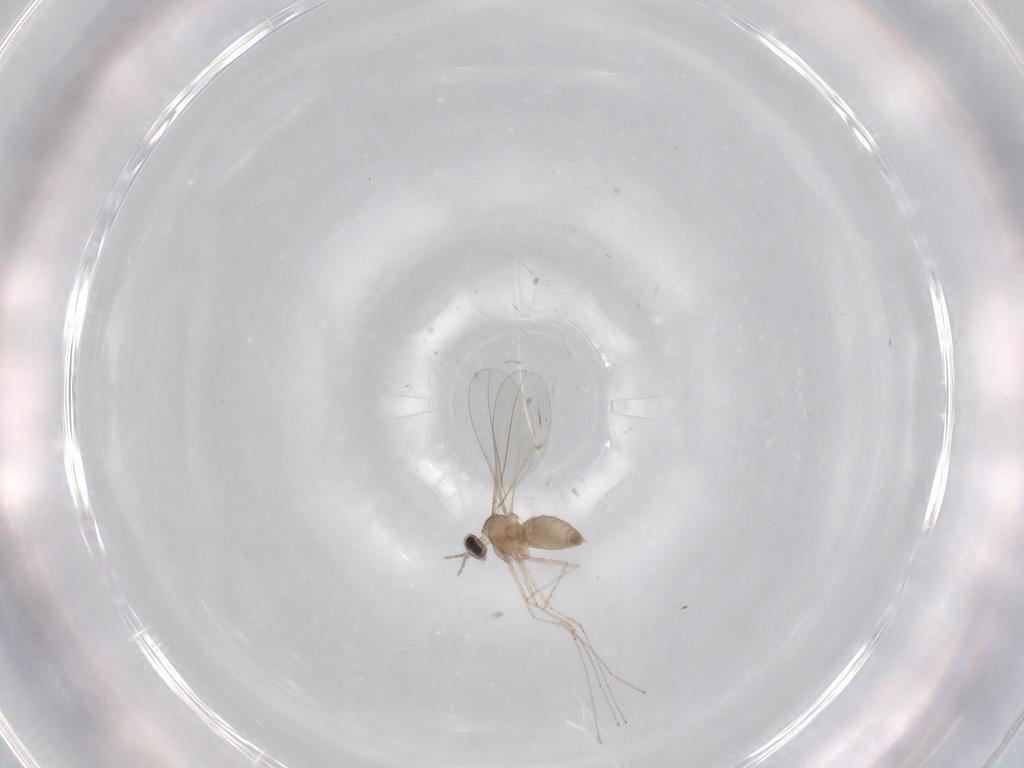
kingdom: Animalia
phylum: Arthropoda
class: Insecta
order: Diptera
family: Cecidomyiidae
